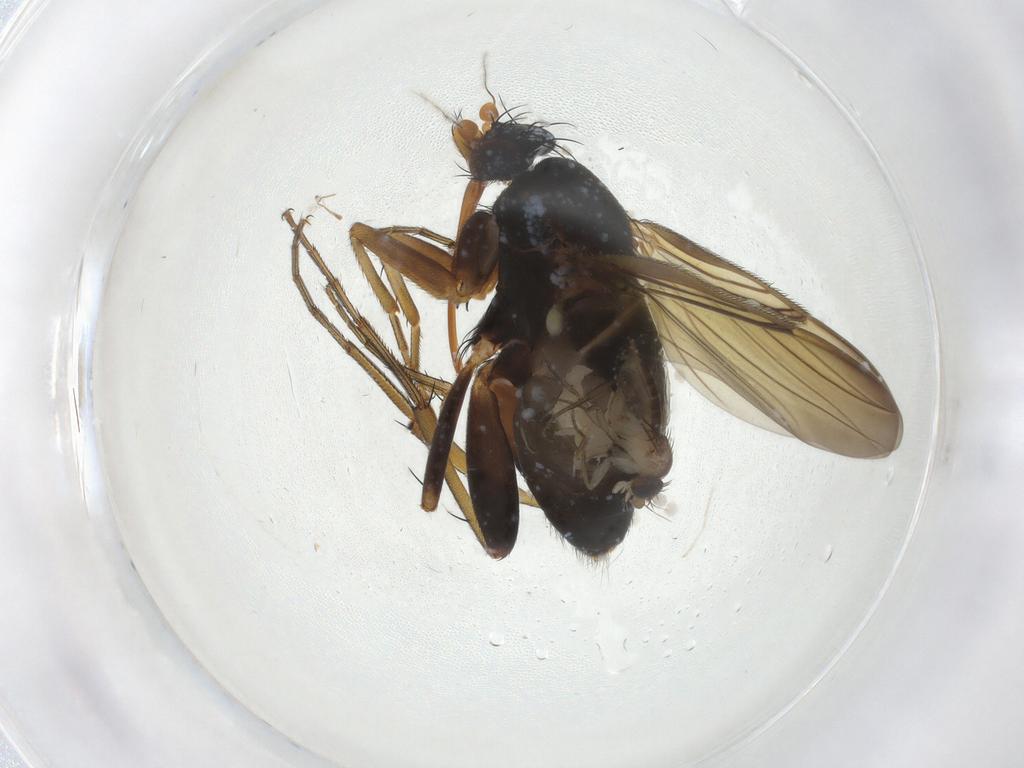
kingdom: Animalia
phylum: Arthropoda
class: Insecta
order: Diptera
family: Phoridae
